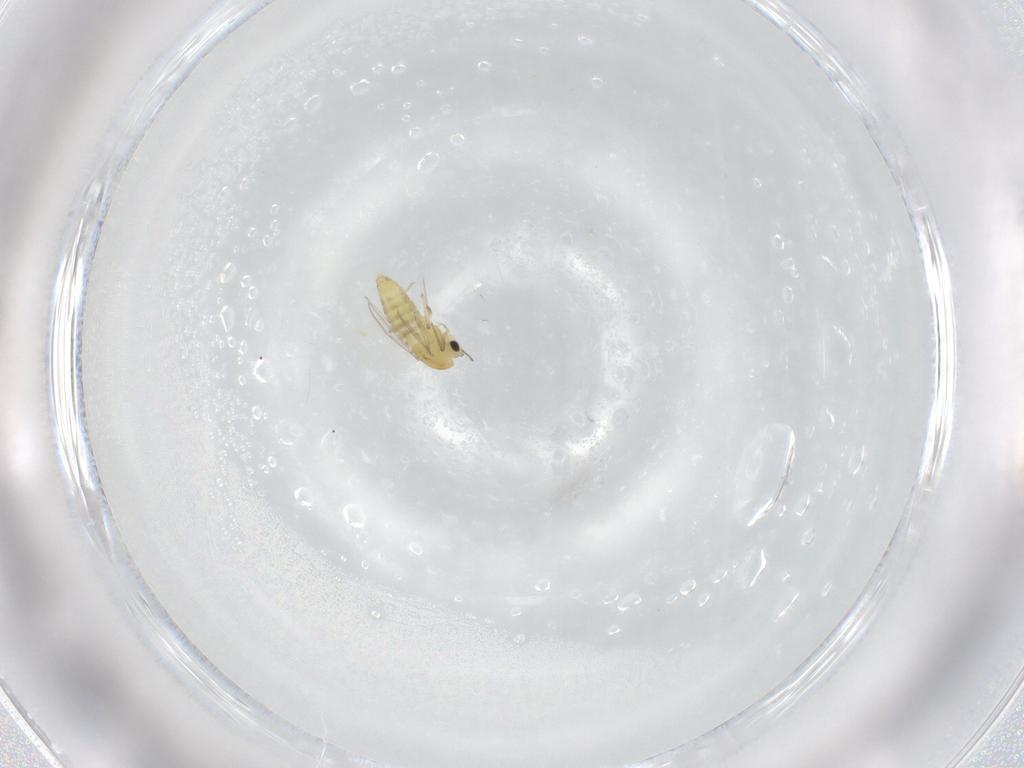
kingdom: Animalia
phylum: Arthropoda
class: Insecta
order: Diptera
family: Chironomidae
